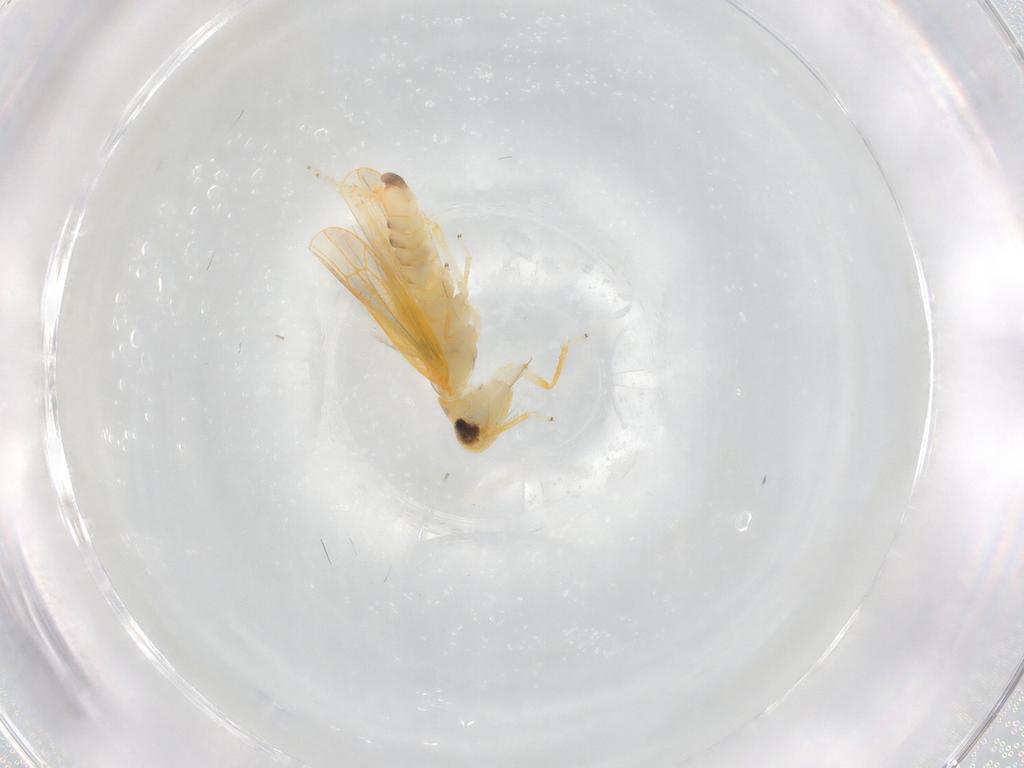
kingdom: Animalia
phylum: Arthropoda
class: Insecta
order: Hemiptera
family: Cicadellidae
